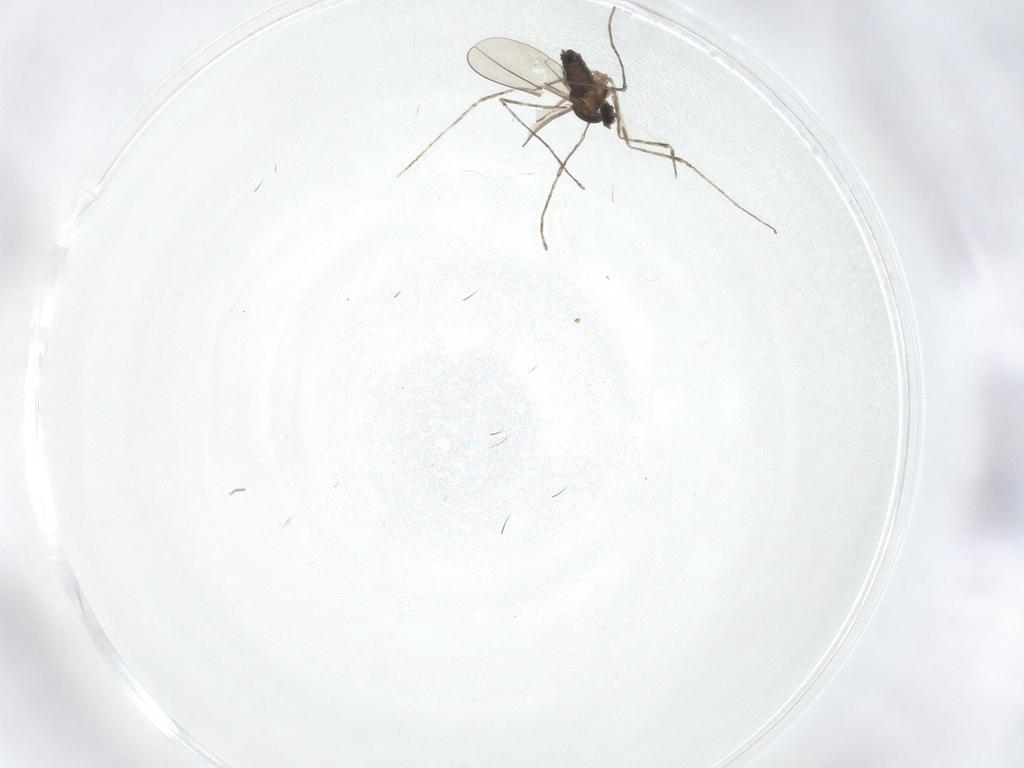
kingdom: Animalia
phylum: Arthropoda
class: Insecta
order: Diptera
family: Cecidomyiidae
